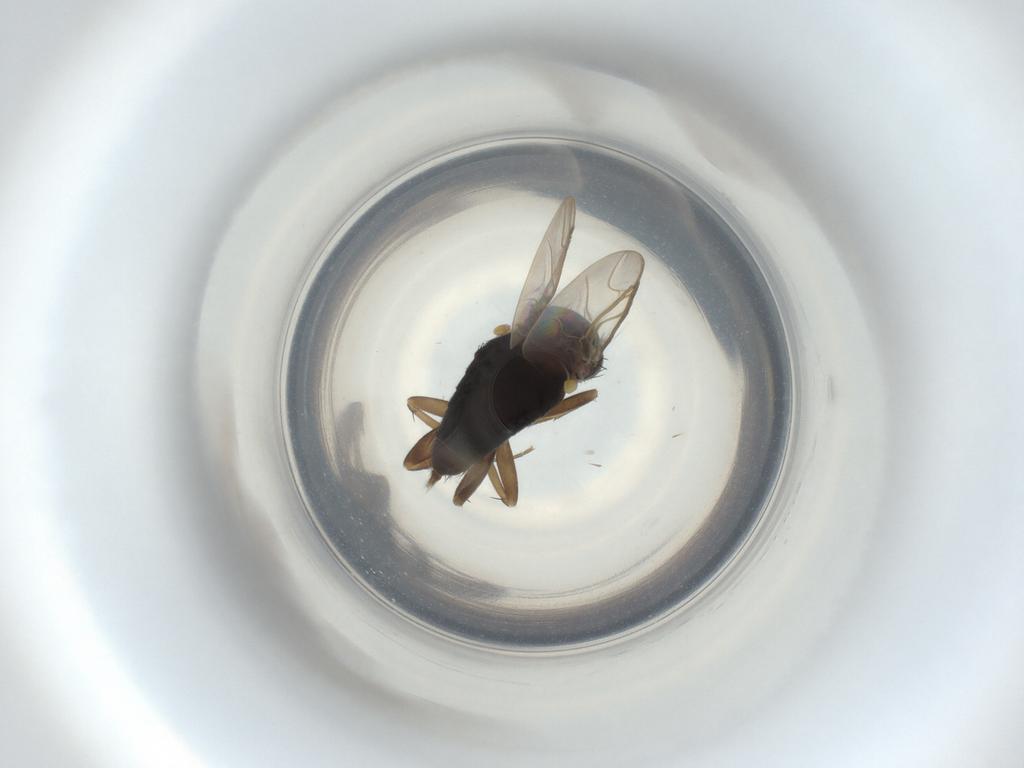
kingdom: Animalia
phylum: Arthropoda
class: Insecta
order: Diptera
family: Phoridae
